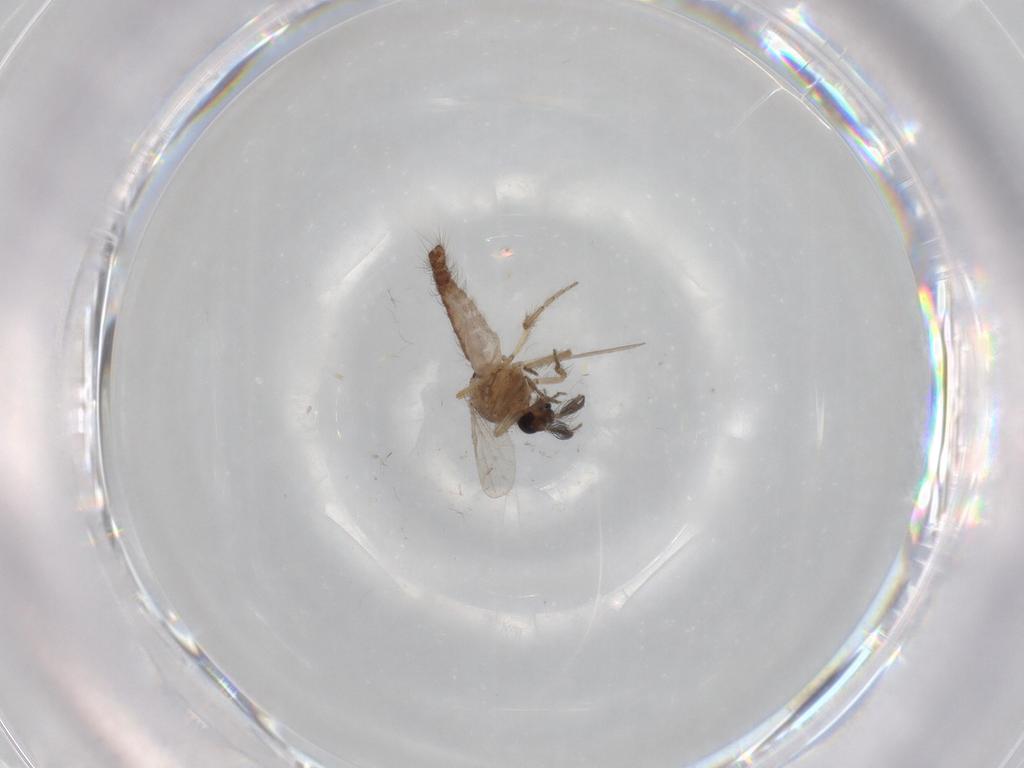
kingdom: Animalia
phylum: Arthropoda
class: Insecta
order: Diptera
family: Ceratopogonidae
